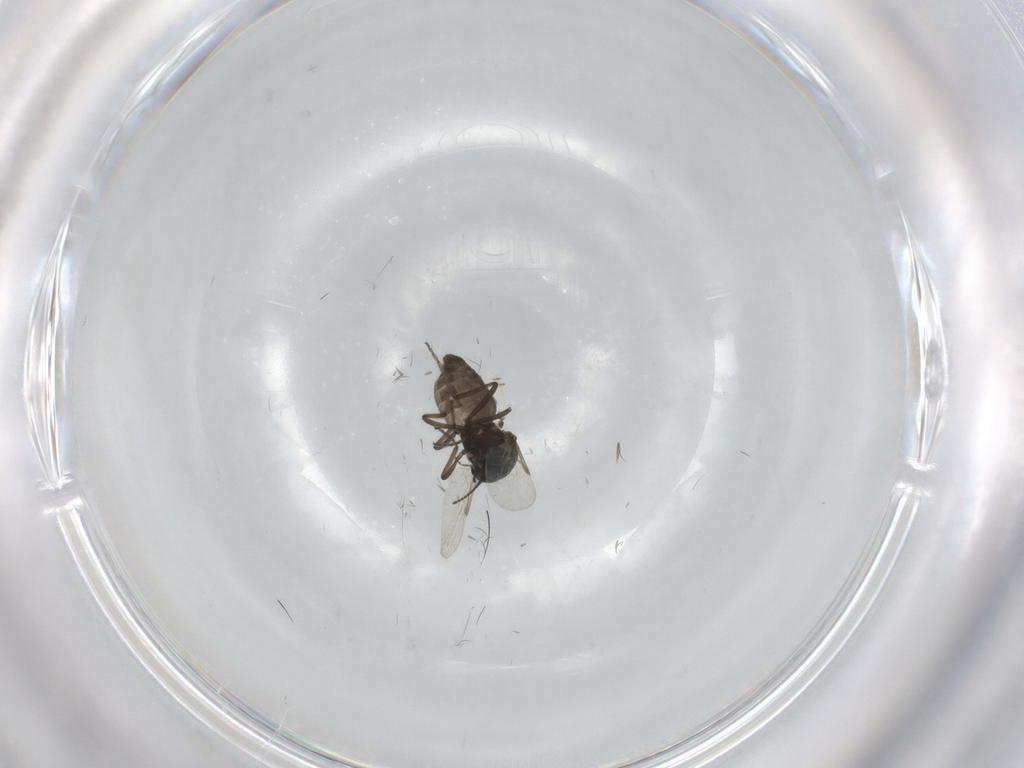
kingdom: Animalia
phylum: Arthropoda
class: Insecta
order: Diptera
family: Ceratopogonidae
